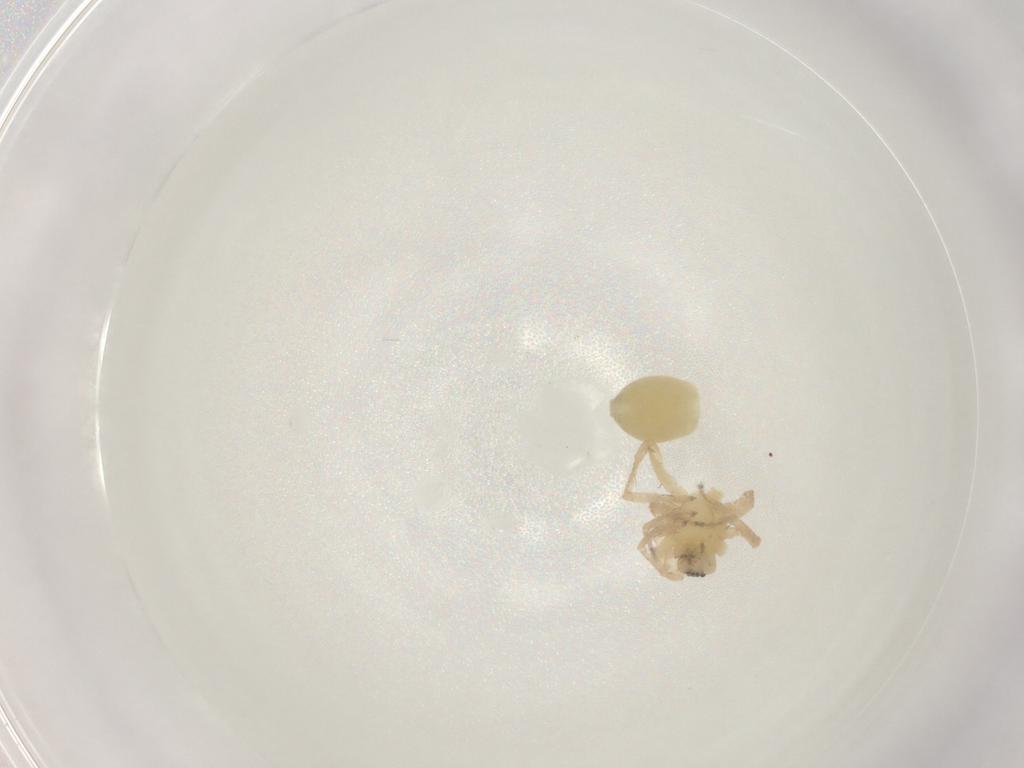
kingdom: Animalia
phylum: Arthropoda
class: Arachnida
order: Araneae
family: Anyphaenidae
